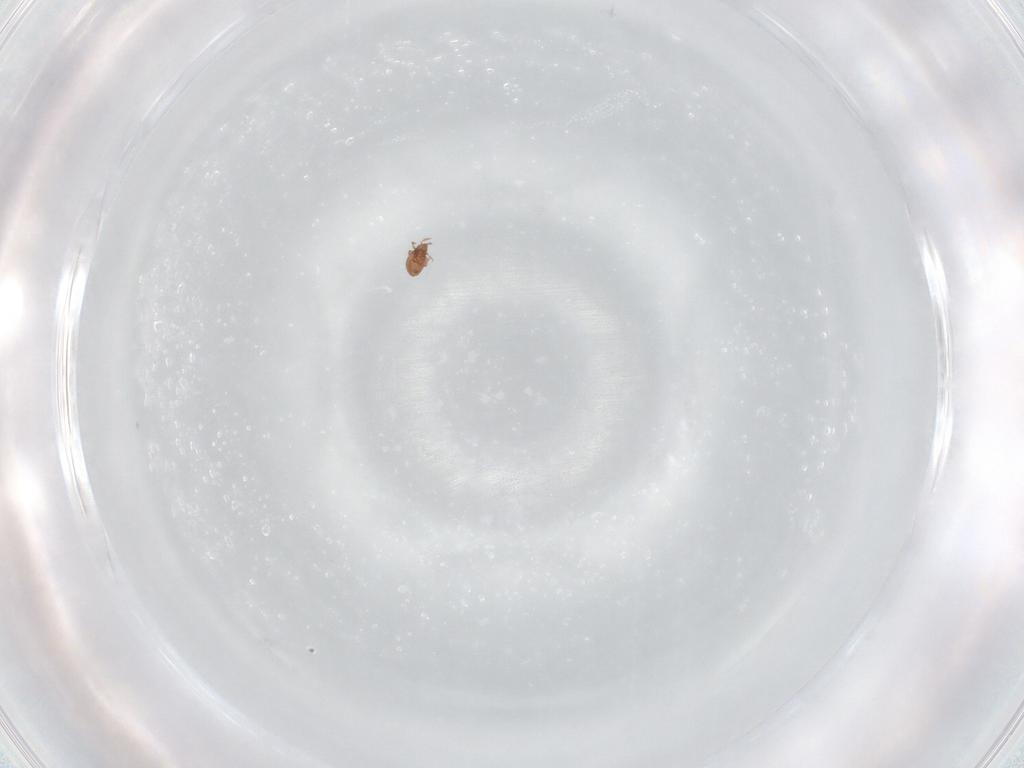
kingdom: Animalia
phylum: Arthropoda
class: Arachnida
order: Sarcoptiformes
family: Oppiidae
